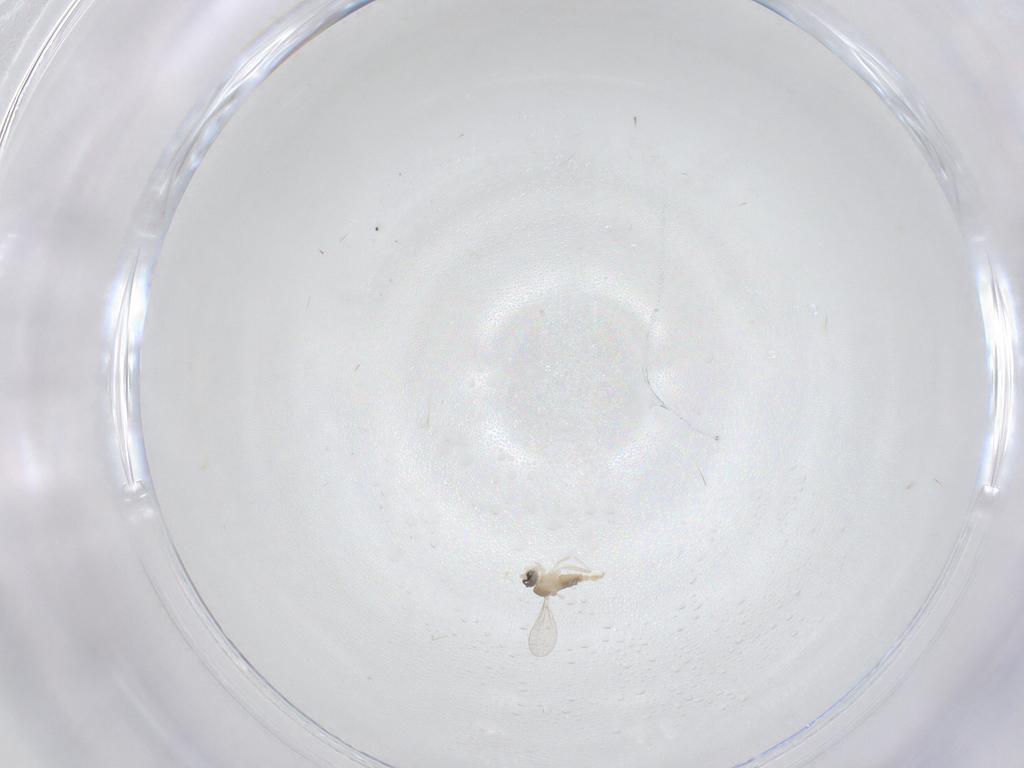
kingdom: Animalia
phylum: Arthropoda
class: Insecta
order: Diptera
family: Cecidomyiidae
